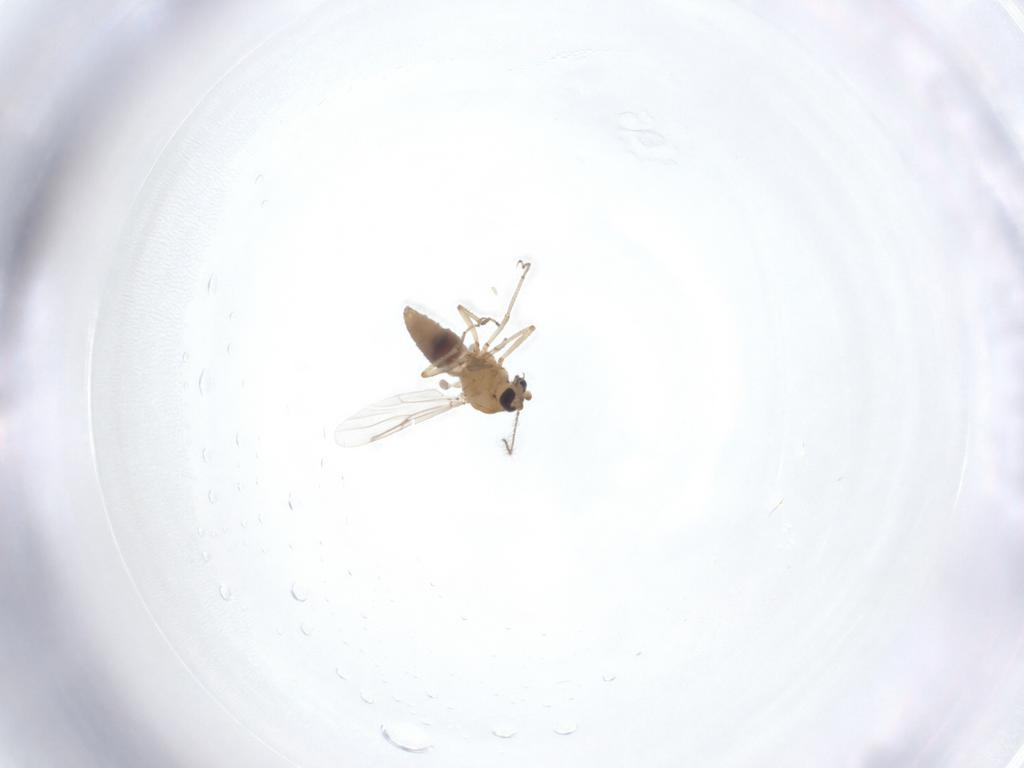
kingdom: Animalia
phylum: Arthropoda
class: Insecta
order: Diptera
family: Chironomidae
